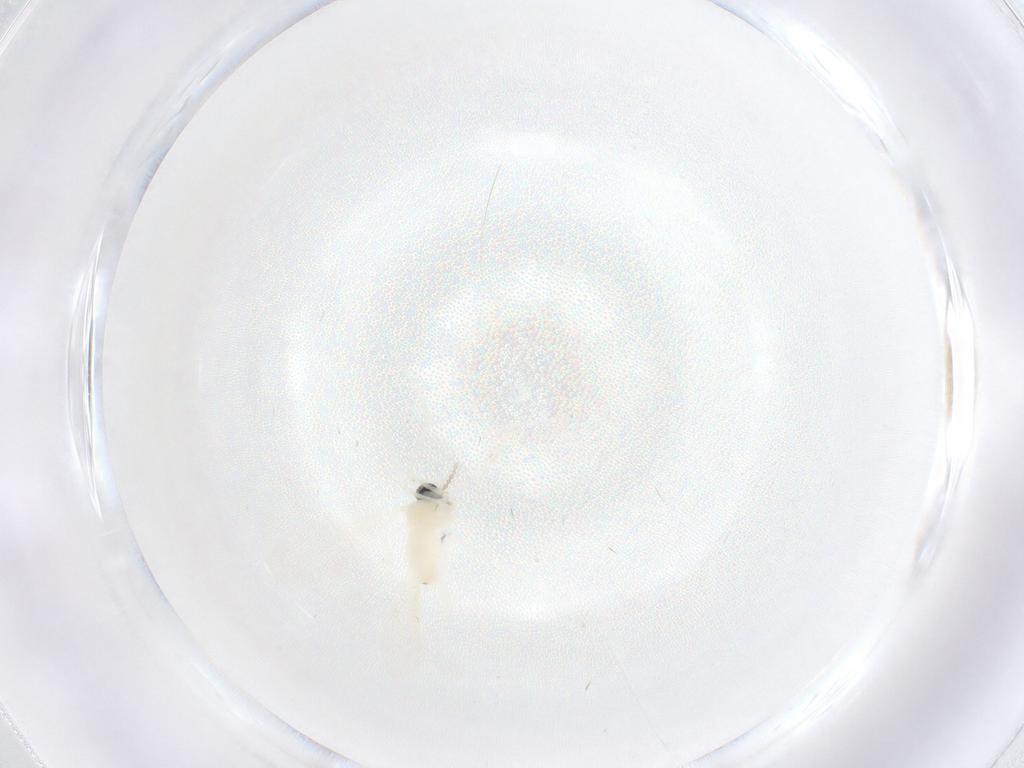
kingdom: Animalia
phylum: Arthropoda
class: Insecta
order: Diptera
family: Cecidomyiidae
